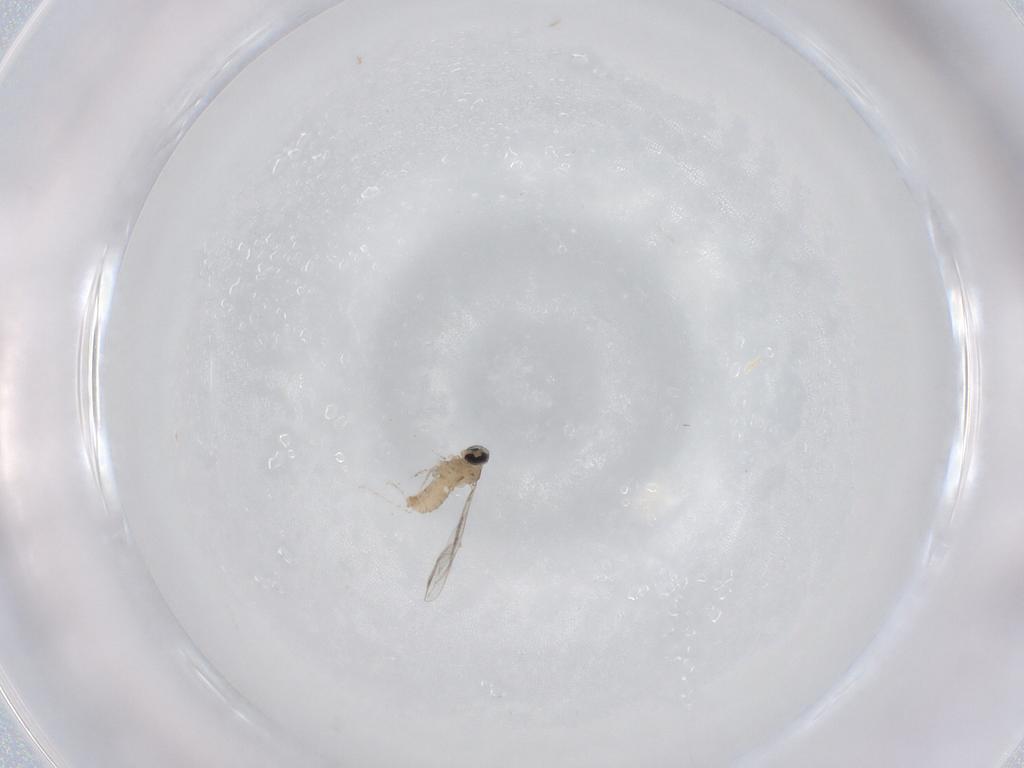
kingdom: Animalia
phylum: Arthropoda
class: Insecta
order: Diptera
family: Cecidomyiidae
